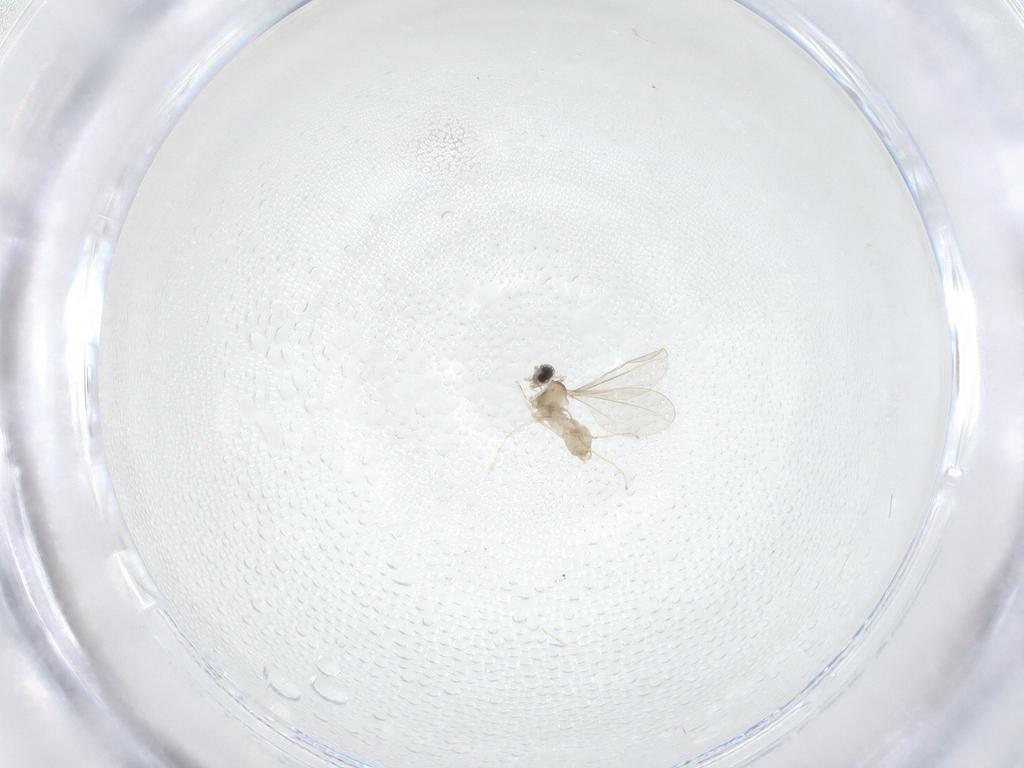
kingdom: Animalia
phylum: Arthropoda
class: Insecta
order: Diptera
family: Cecidomyiidae
